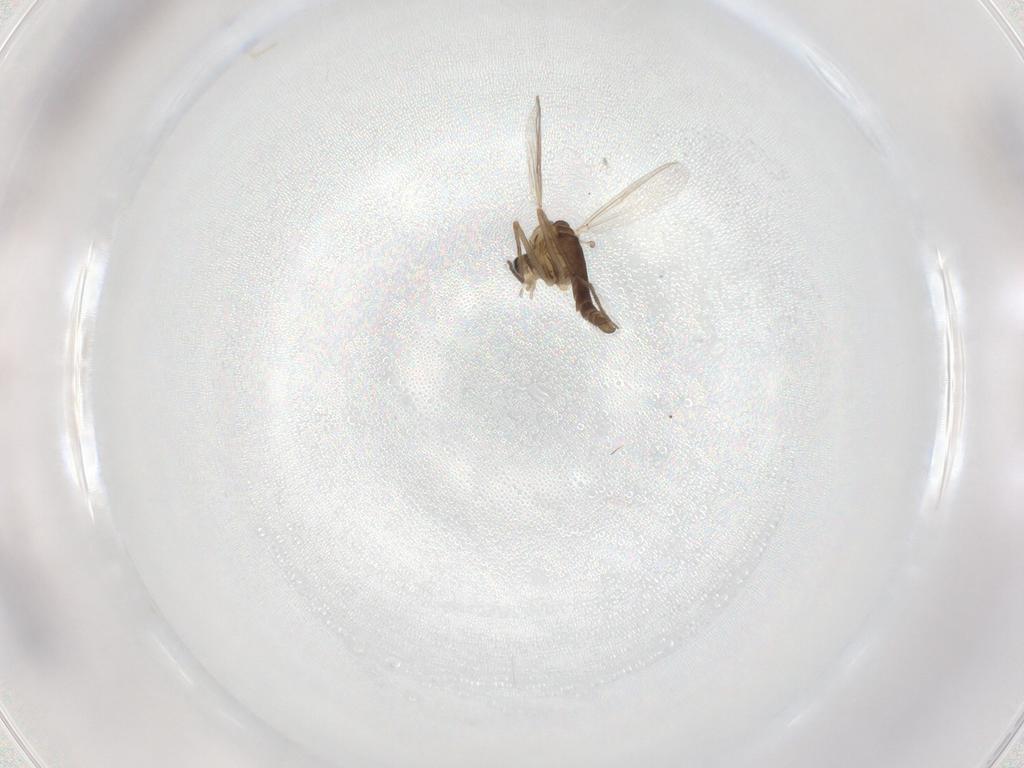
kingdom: Animalia
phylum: Arthropoda
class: Insecta
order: Diptera
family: Chironomidae
